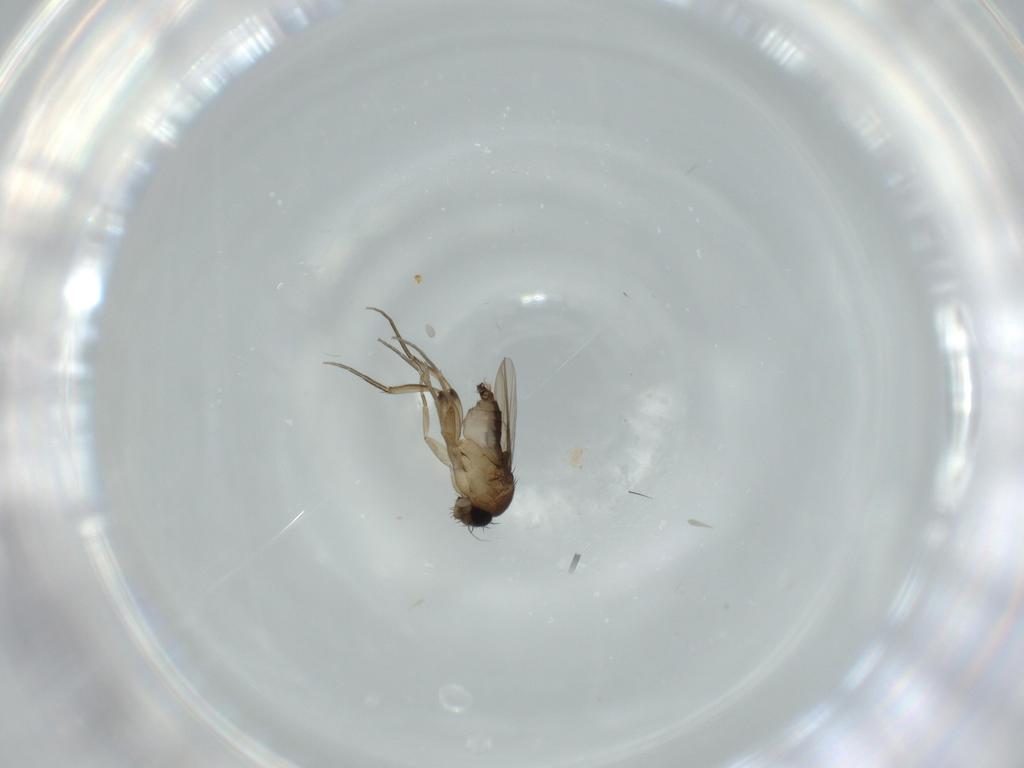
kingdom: Animalia
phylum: Arthropoda
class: Insecta
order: Diptera
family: Phoridae
